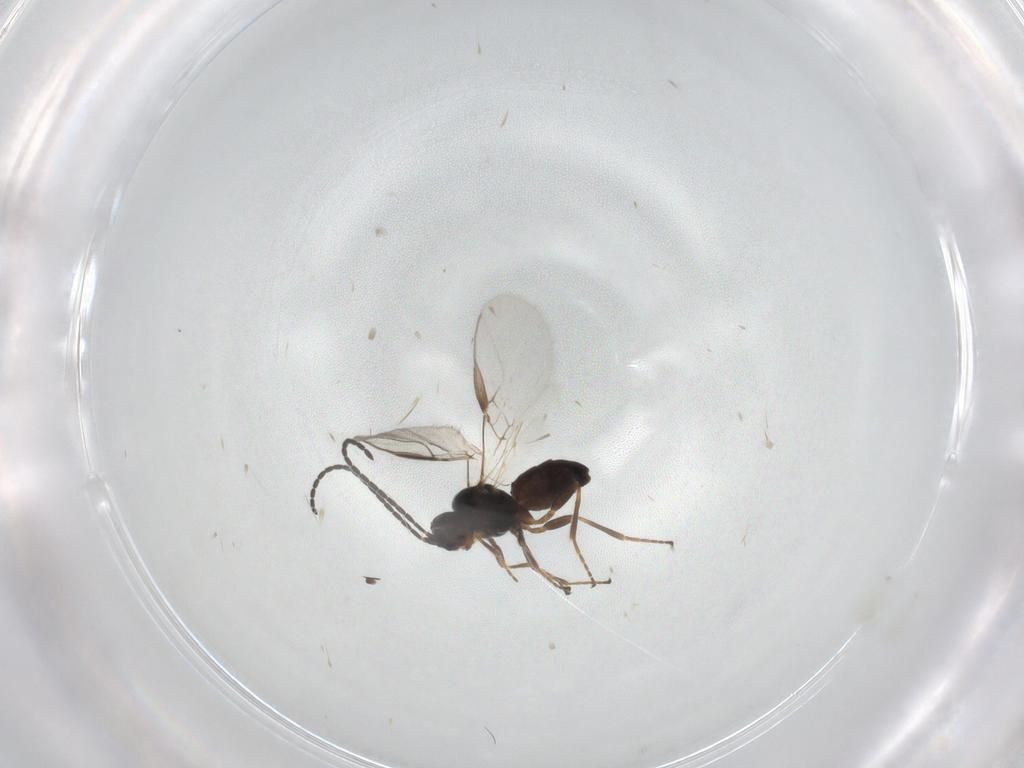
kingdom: Animalia
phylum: Arthropoda
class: Insecta
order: Hymenoptera
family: Braconidae
